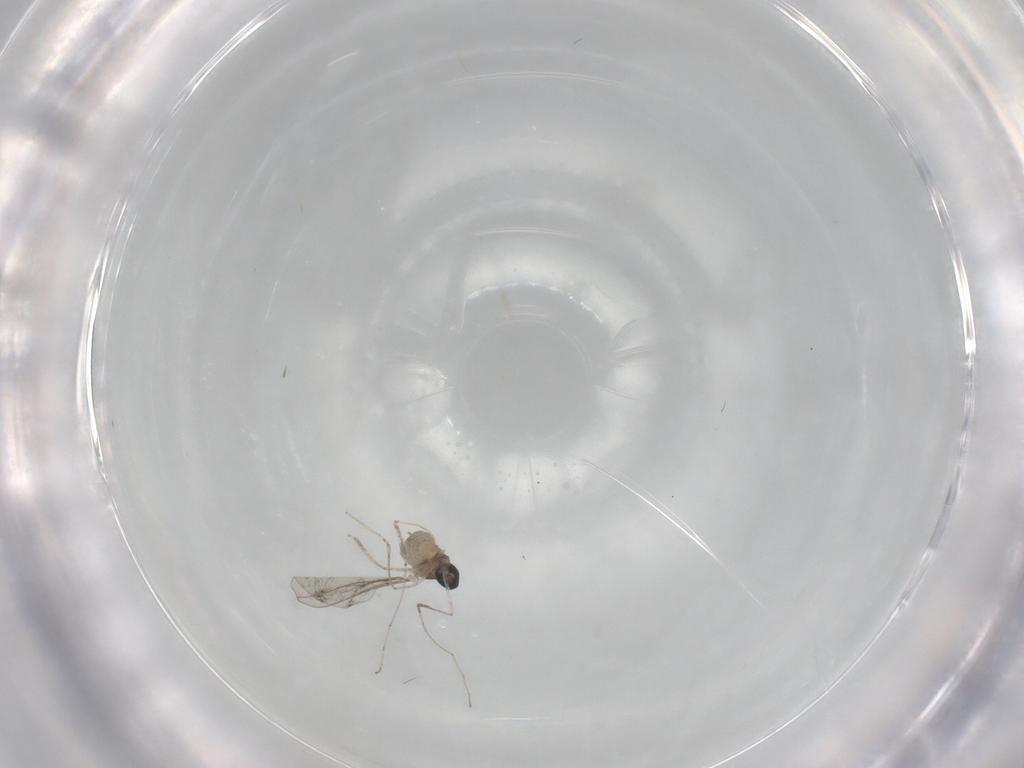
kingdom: Animalia
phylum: Arthropoda
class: Insecta
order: Diptera
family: Cecidomyiidae
